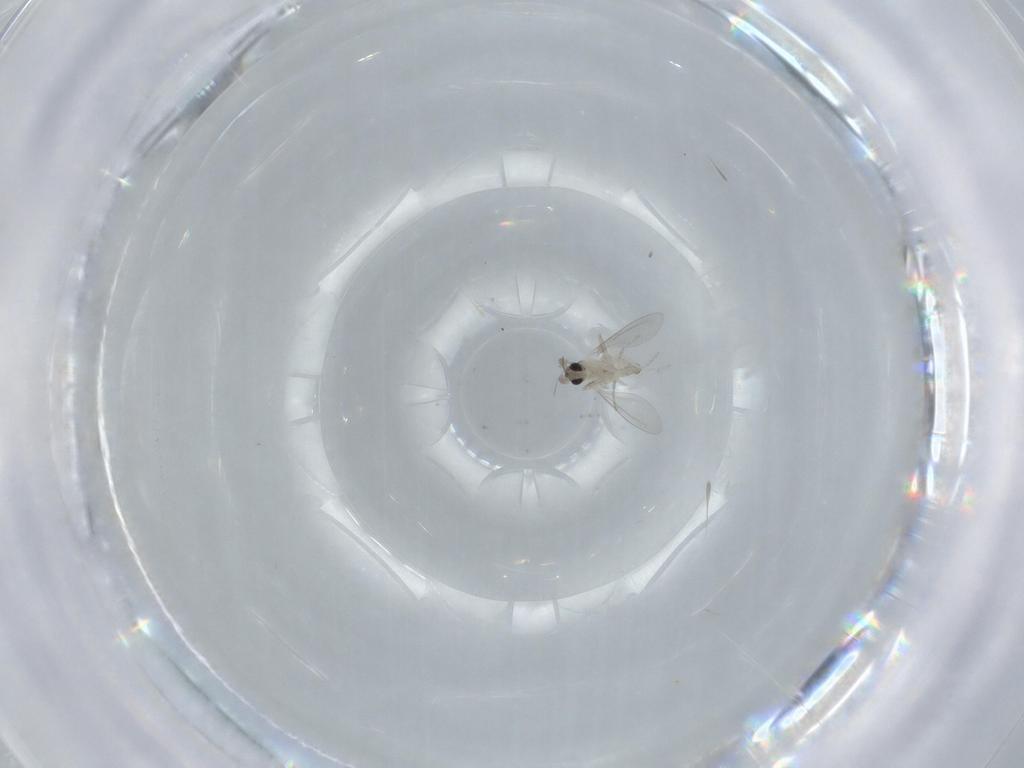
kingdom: Animalia
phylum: Arthropoda
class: Insecta
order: Diptera
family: Cecidomyiidae
